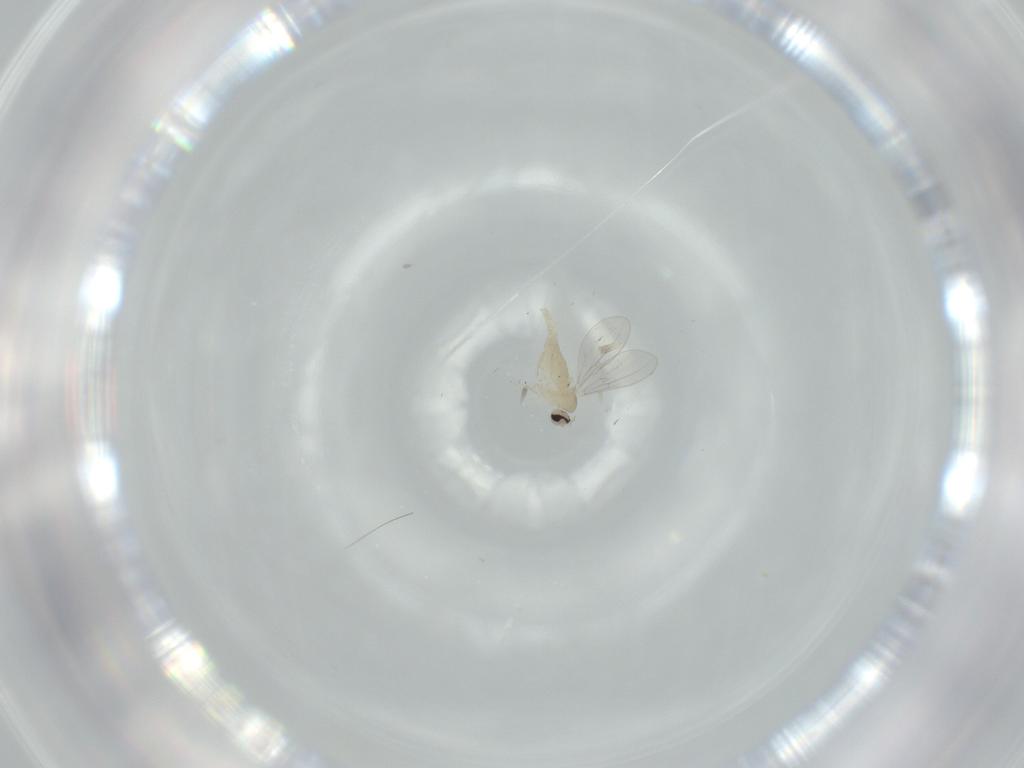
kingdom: Animalia
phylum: Arthropoda
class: Insecta
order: Diptera
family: Cecidomyiidae
